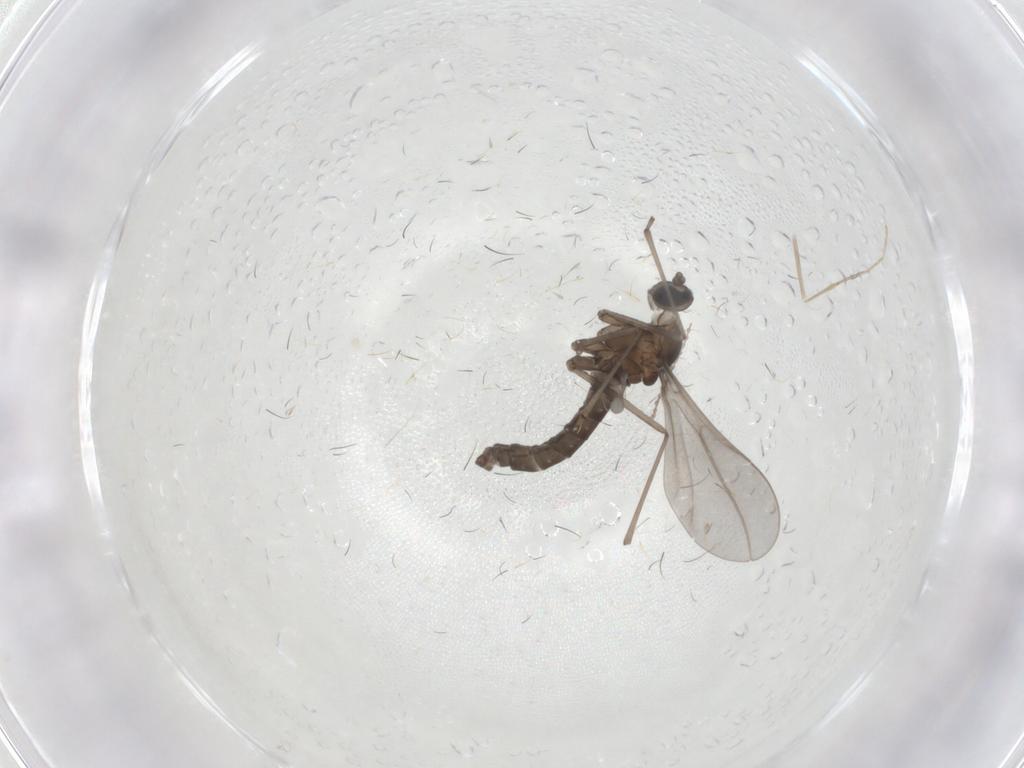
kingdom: Animalia
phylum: Arthropoda
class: Insecta
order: Diptera
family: Cecidomyiidae
